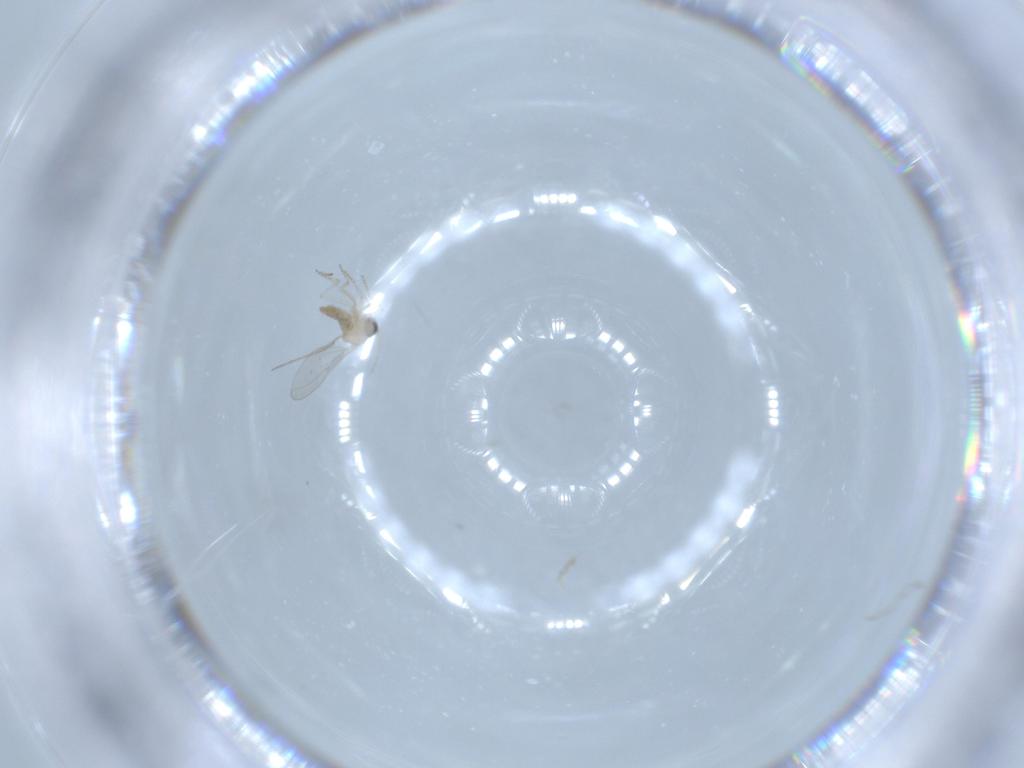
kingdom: Animalia
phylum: Arthropoda
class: Insecta
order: Diptera
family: Cecidomyiidae
